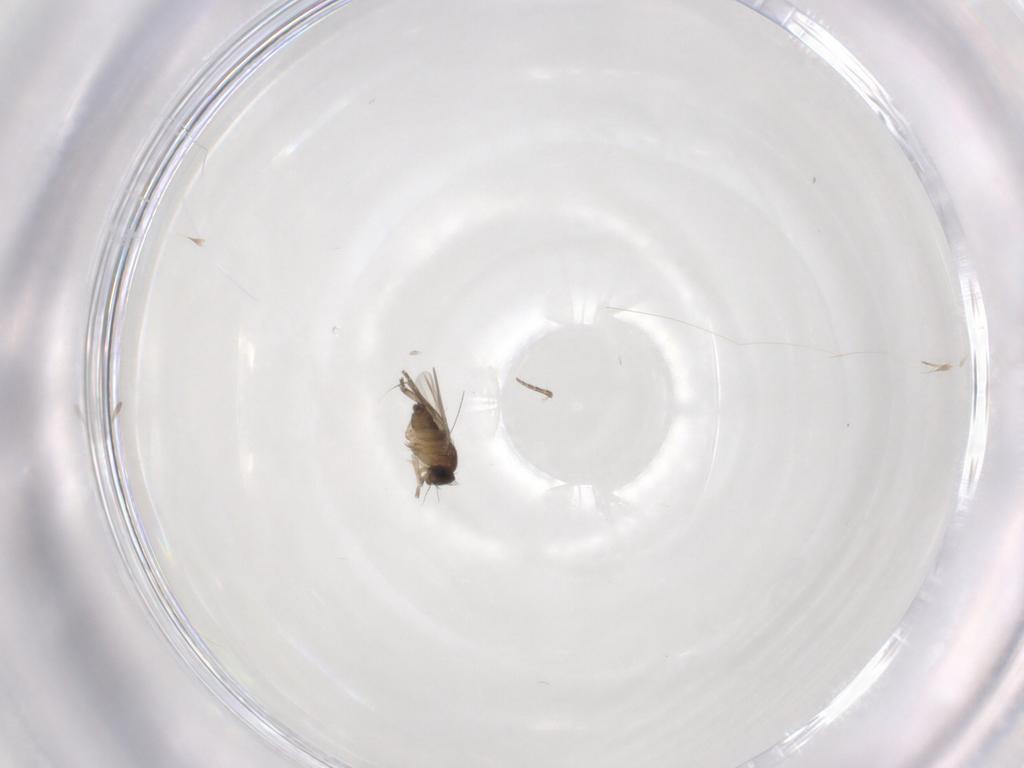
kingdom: Animalia
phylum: Arthropoda
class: Insecta
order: Diptera
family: Phoridae
